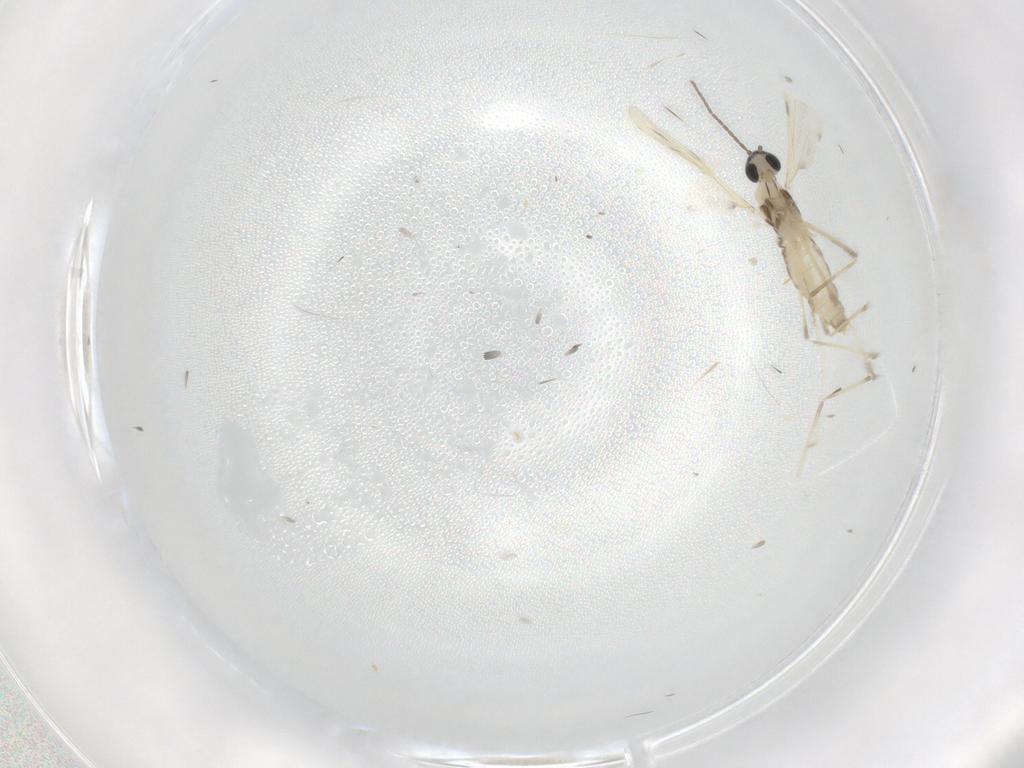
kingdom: Animalia
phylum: Arthropoda
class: Insecta
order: Diptera
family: Cecidomyiidae
